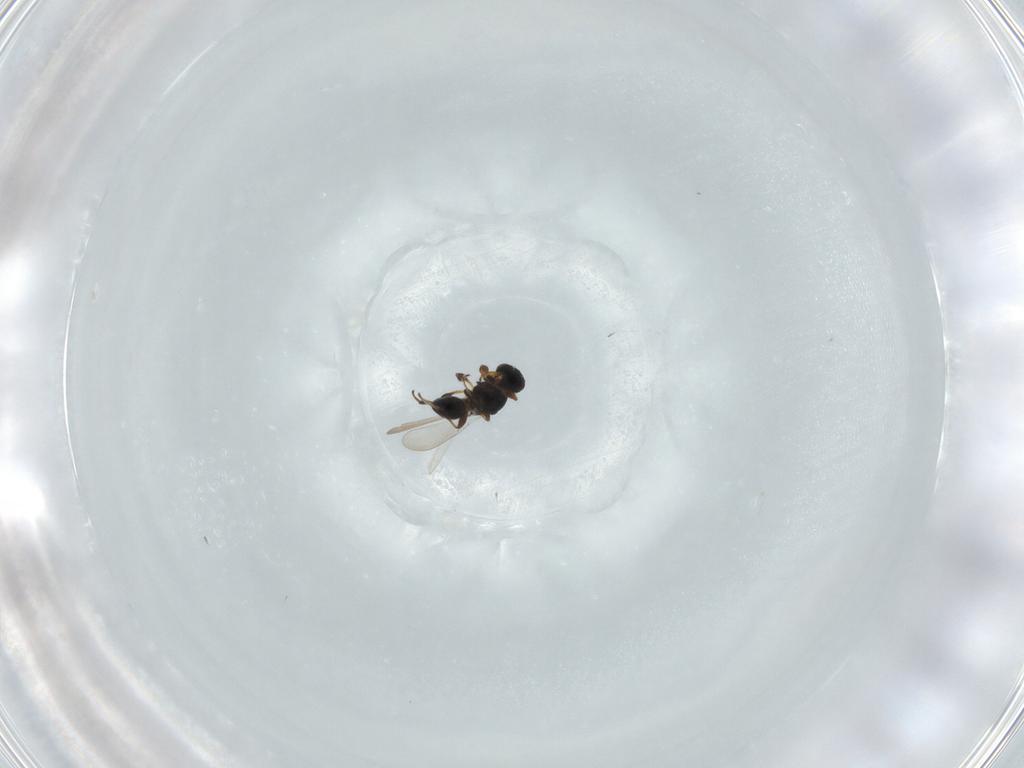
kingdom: Animalia
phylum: Arthropoda
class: Insecta
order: Hymenoptera
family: Platygastridae
